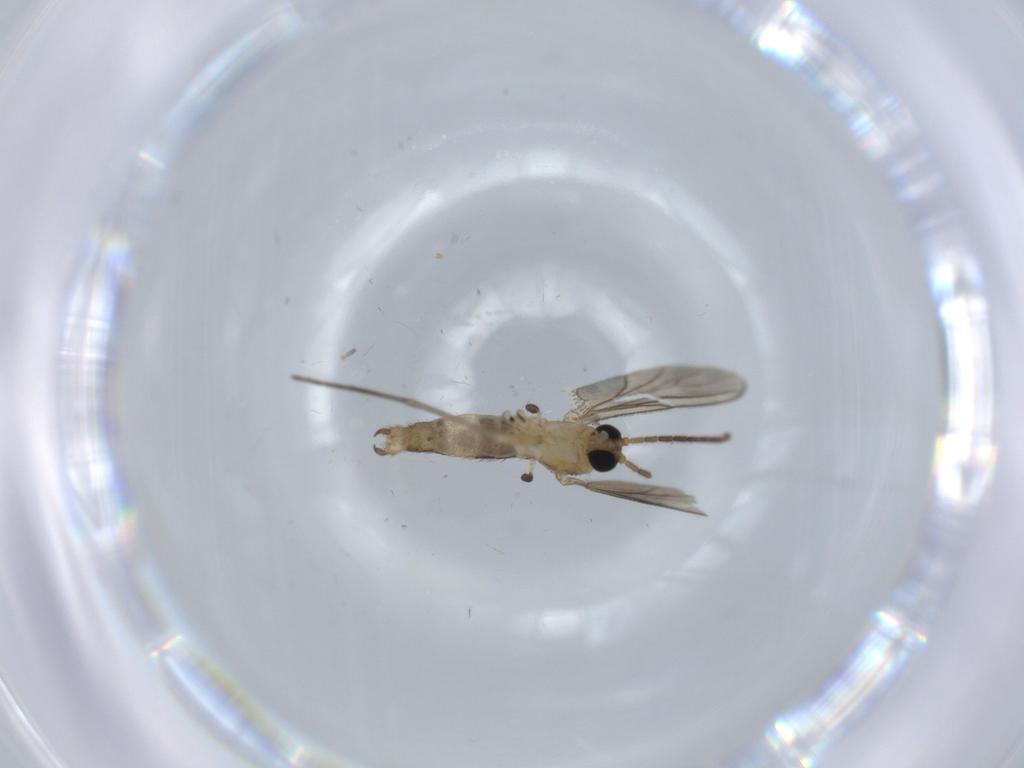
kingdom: Animalia
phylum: Arthropoda
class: Insecta
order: Diptera
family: Sciaridae
